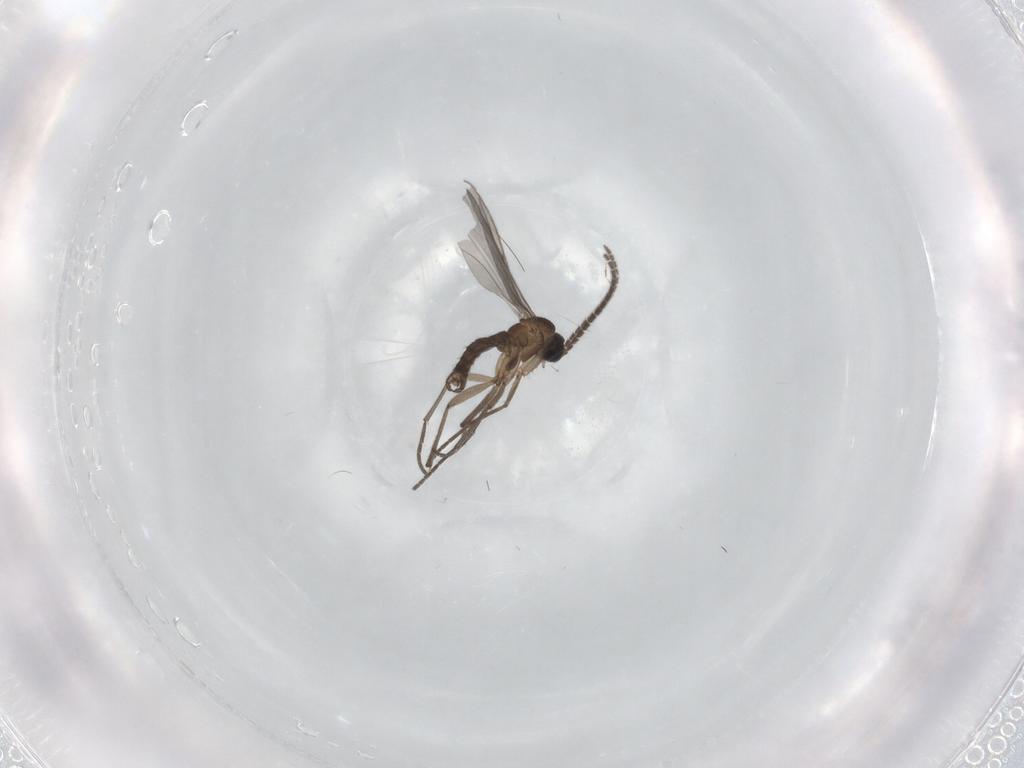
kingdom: Animalia
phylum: Arthropoda
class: Insecta
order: Diptera
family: Sciaridae
